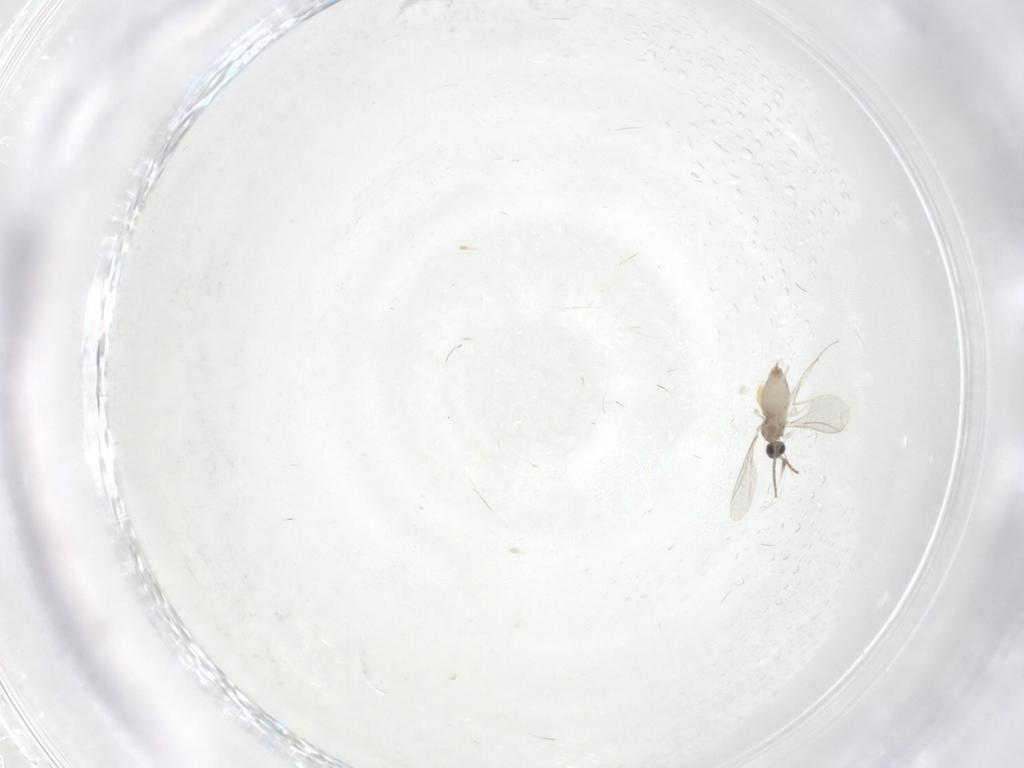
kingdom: Animalia
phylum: Arthropoda
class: Insecta
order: Diptera
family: Cecidomyiidae
